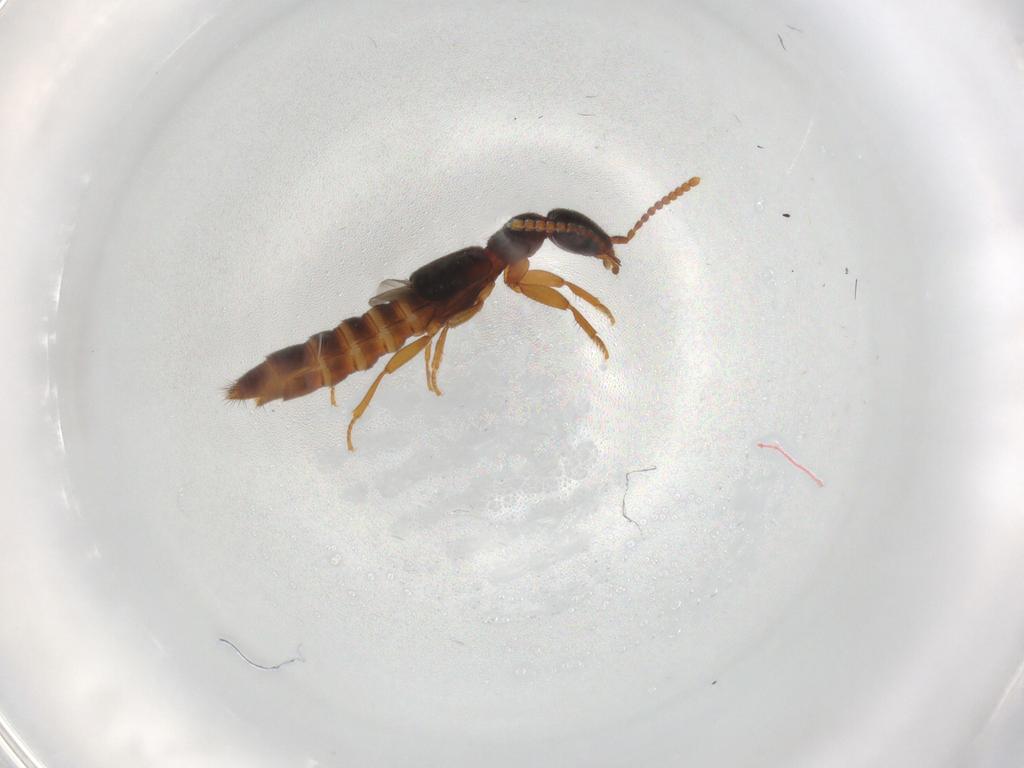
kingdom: Animalia
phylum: Arthropoda
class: Insecta
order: Coleoptera
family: Staphylinidae
